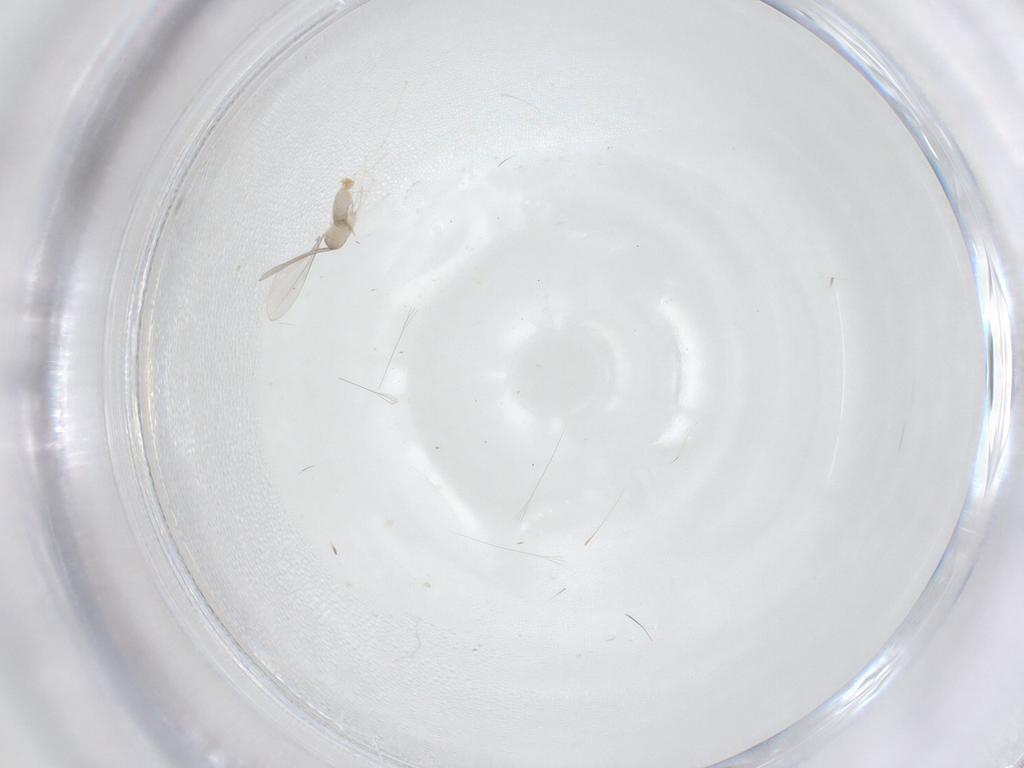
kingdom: Animalia
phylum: Arthropoda
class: Insecta
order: Diptera
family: Cecidomyiidae
